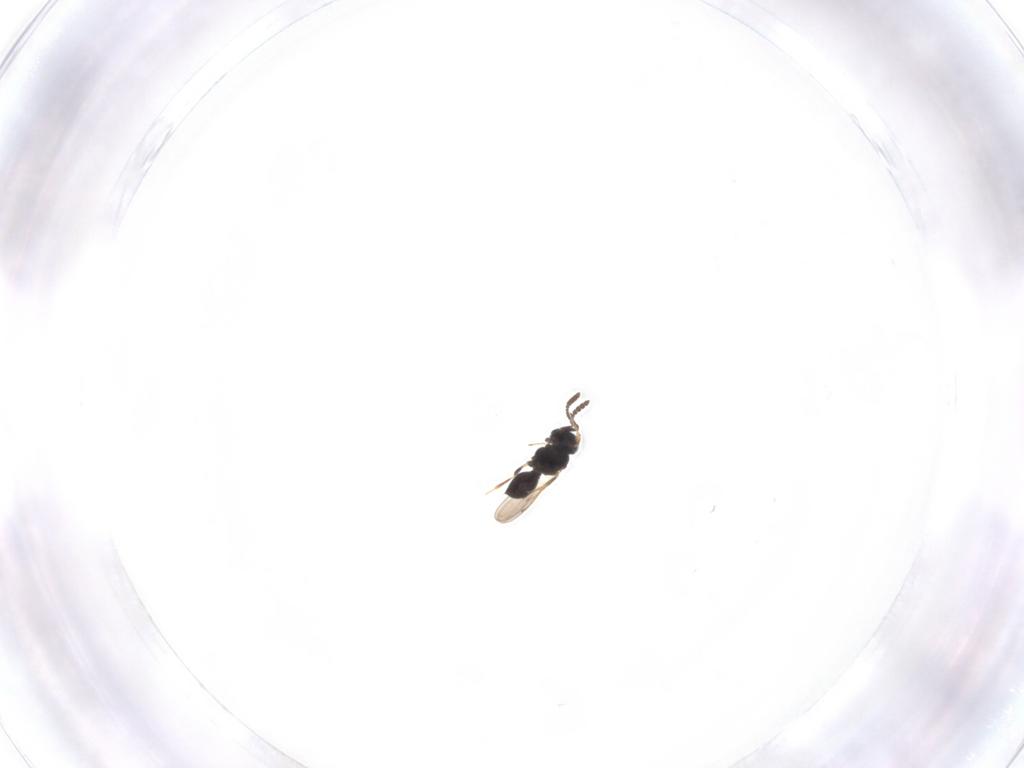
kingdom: Animalia
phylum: Arthropoda
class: Insecta
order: Hymenoptera
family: Scelionidae
